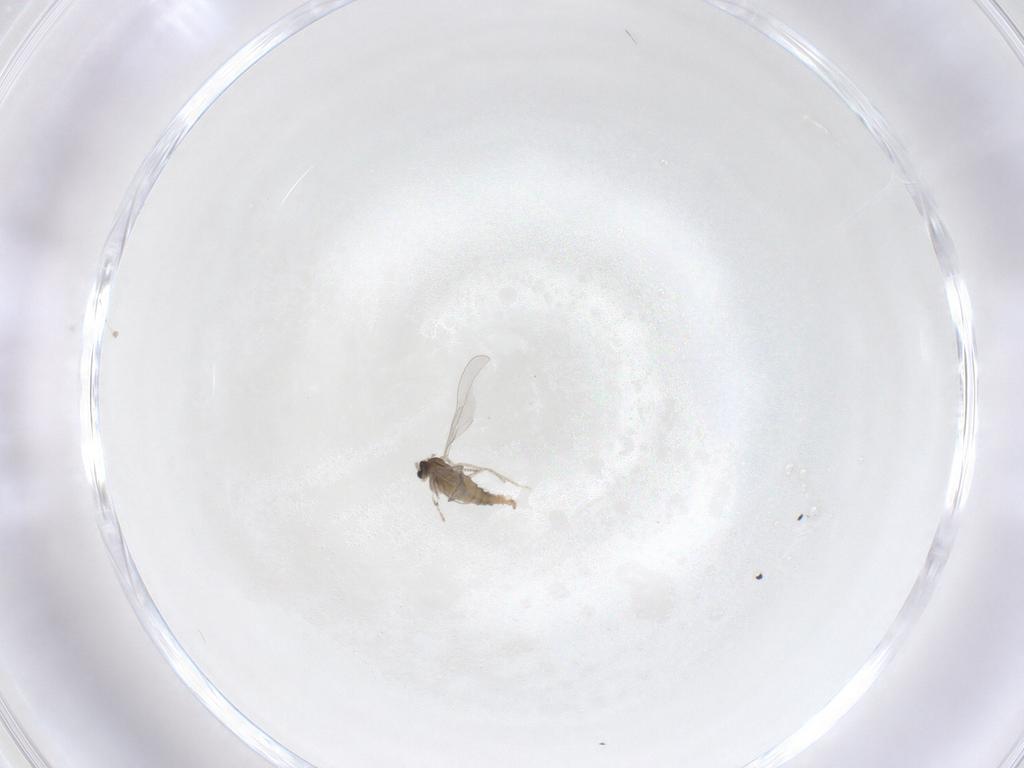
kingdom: Animalia
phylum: Arthropoda
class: Insecta
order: Diptera
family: Cecidomyiidae
